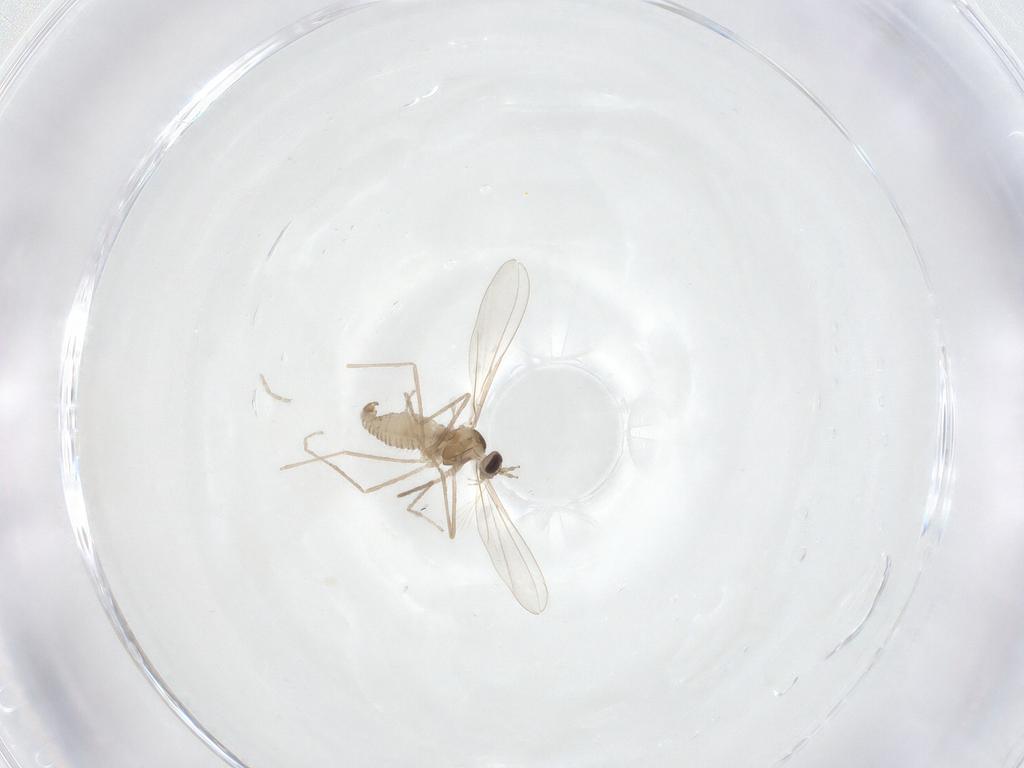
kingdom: Animalia
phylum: Arthropoda
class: Insecta
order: Diptera
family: Cecidomyiidae
